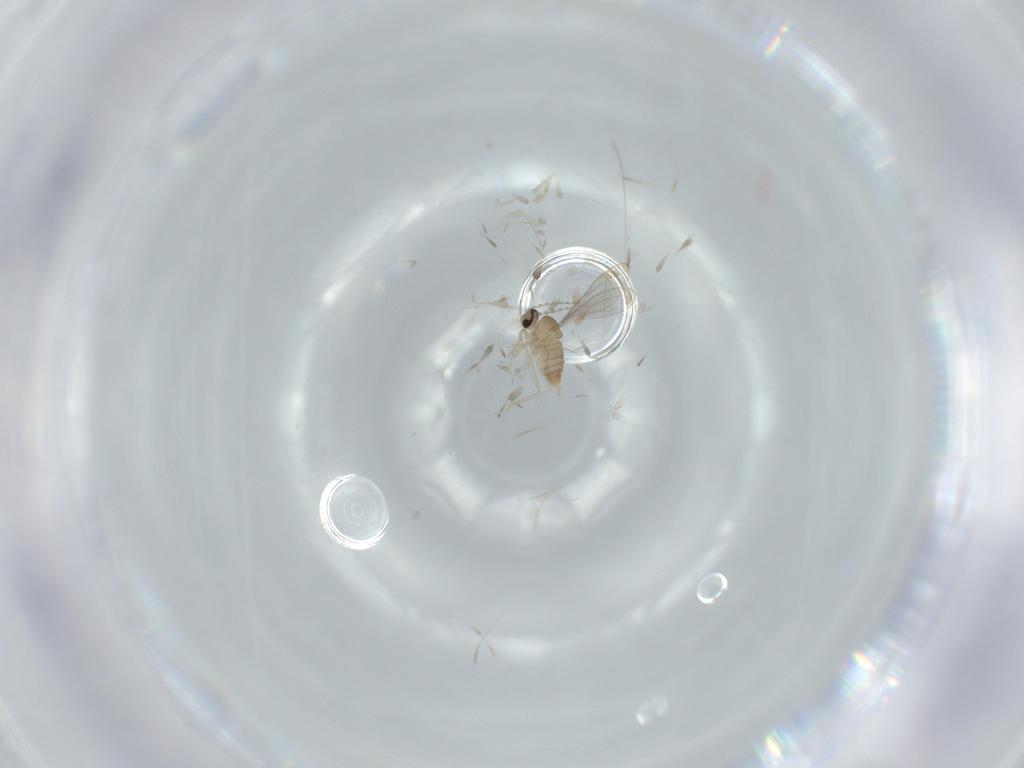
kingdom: Animalia
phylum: Arthropoda
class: Insecta
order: Diptera
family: Cecidomyiidae
